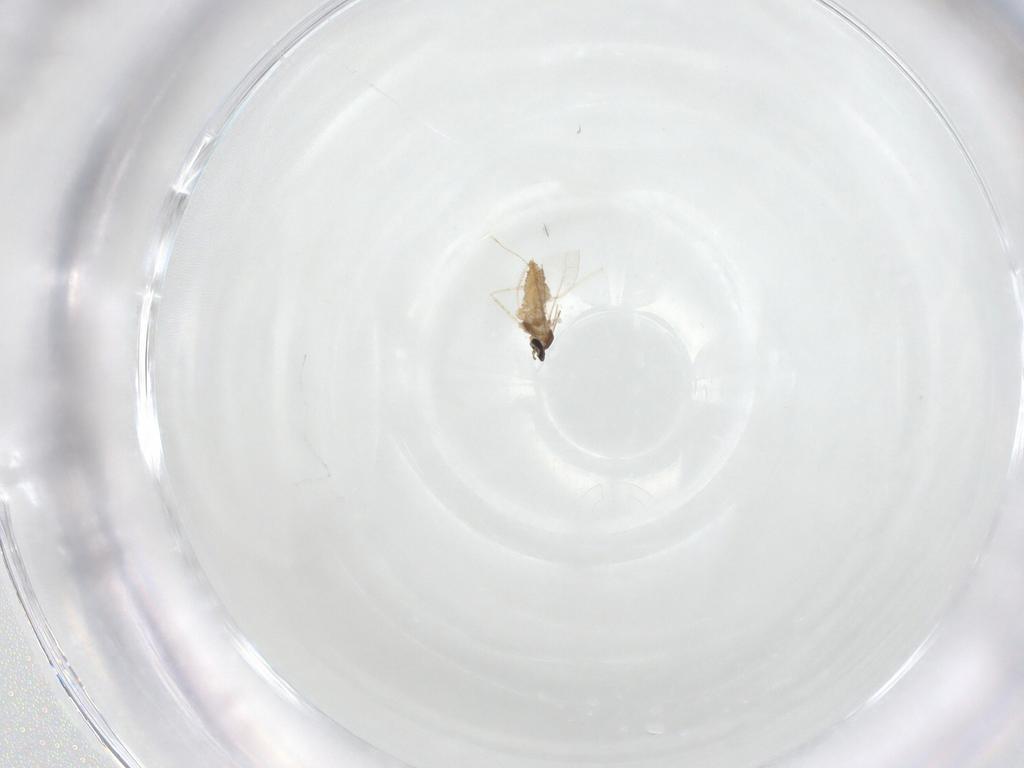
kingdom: Animalia
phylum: Arthropoda
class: Insecta
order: Diptera
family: Cecidomyiidae
